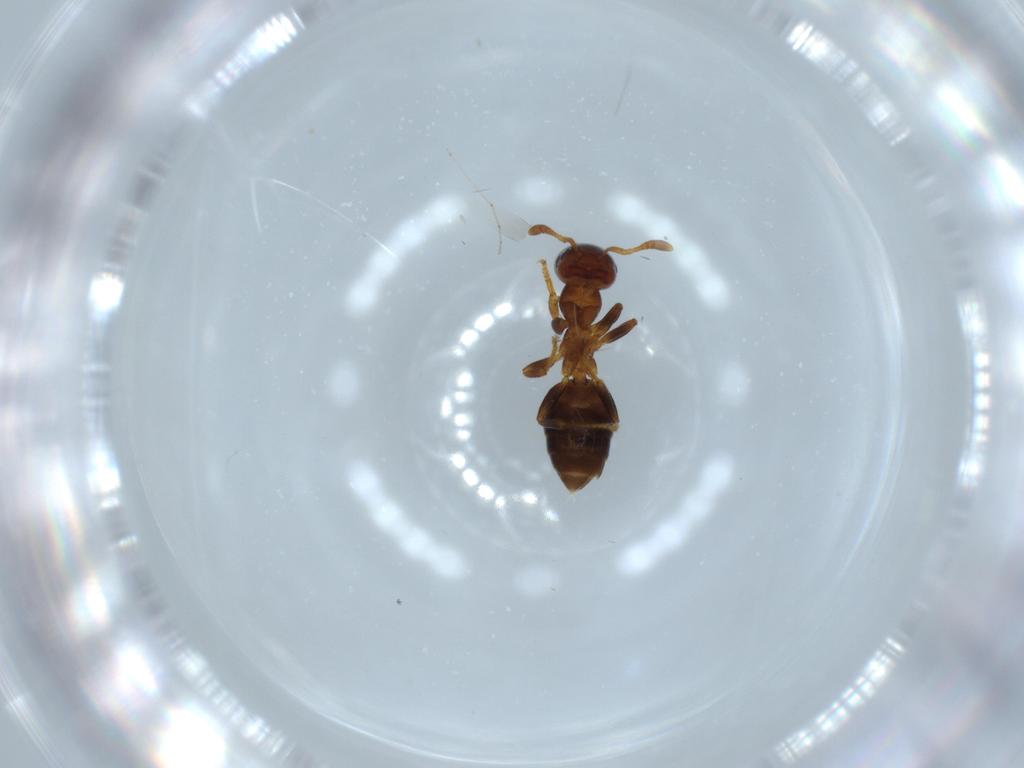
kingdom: Animalia
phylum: Arthropoda
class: Insecta
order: Hymenoptera
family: Formicidae
